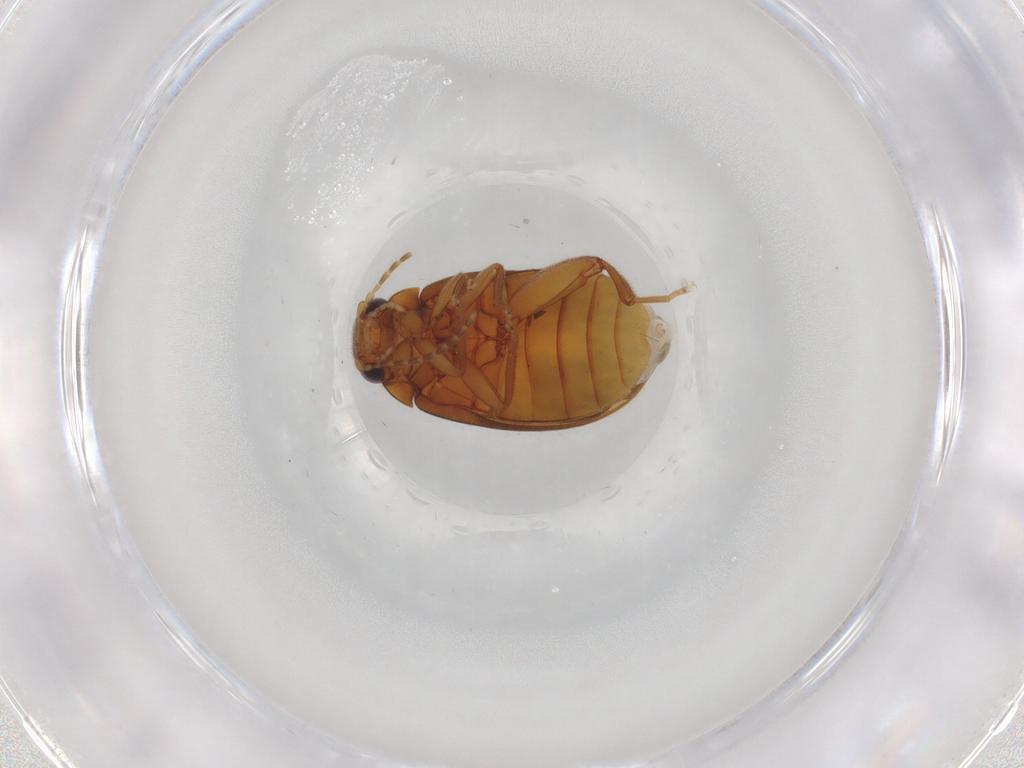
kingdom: Animalia
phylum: Arthropoda
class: Insecta
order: Coleoptera
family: Scirtidae
